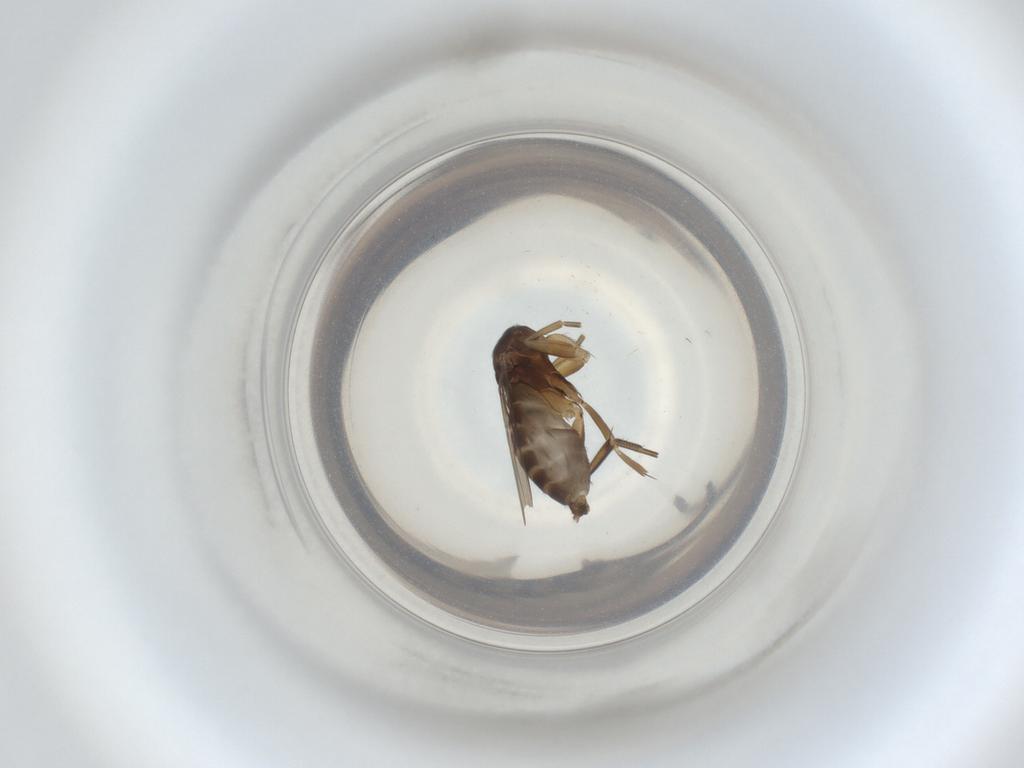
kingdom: Animalia
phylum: Arthropoda
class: Insecta
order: Diptera
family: Phoridae
